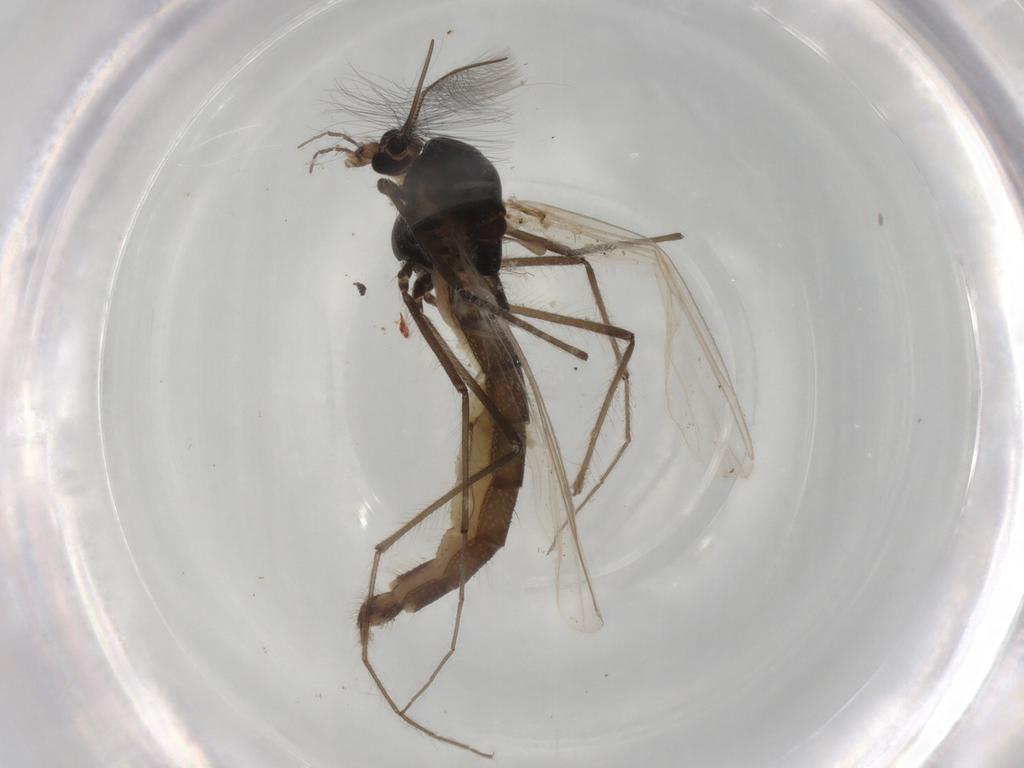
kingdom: Animalia
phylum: Arthropoda
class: Insecta
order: Diptera
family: Chironomidae
